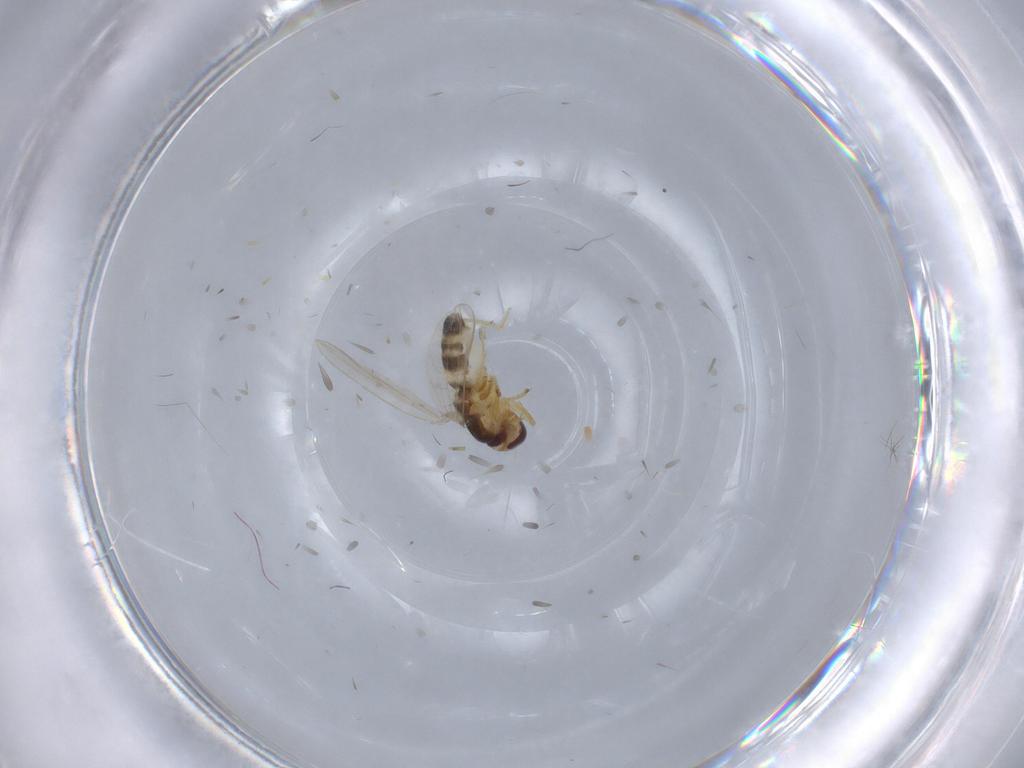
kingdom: Animalia
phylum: Arthropoda
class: Insecta
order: Diptera
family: Periscelididae
